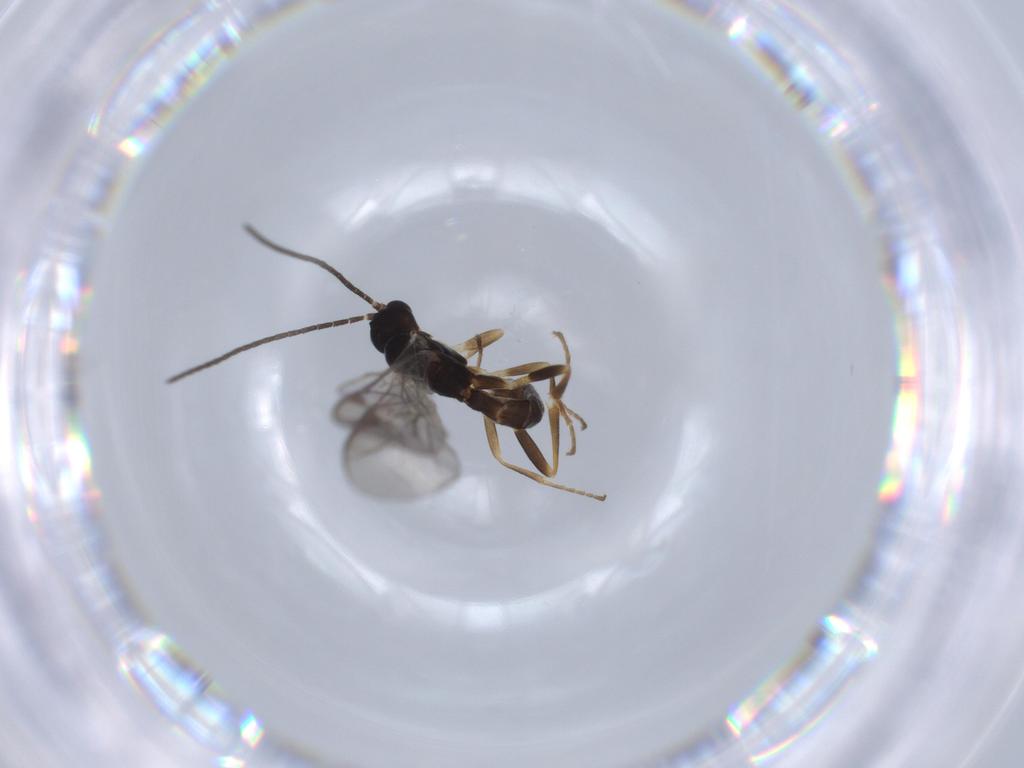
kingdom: Animalia
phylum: Arthropoda
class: Insecta
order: Hymenoptera
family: Ichneumonidae
